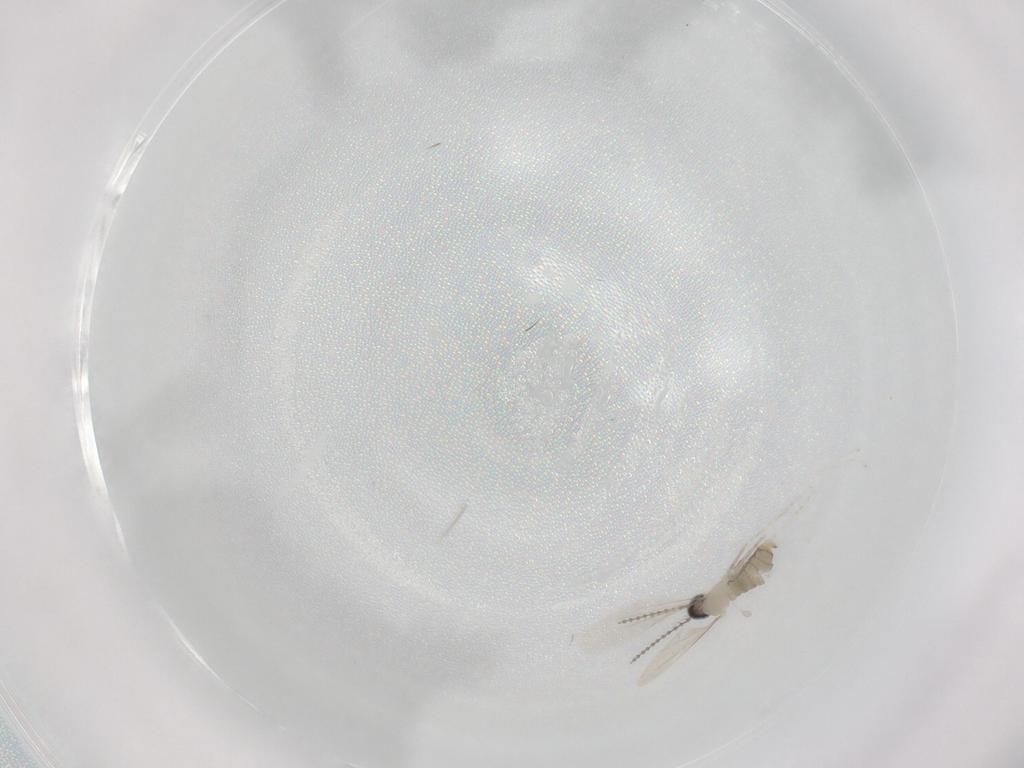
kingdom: Animalia
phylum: Arthropoda
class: Insecta
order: Diptera
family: Cecidomyiidae
